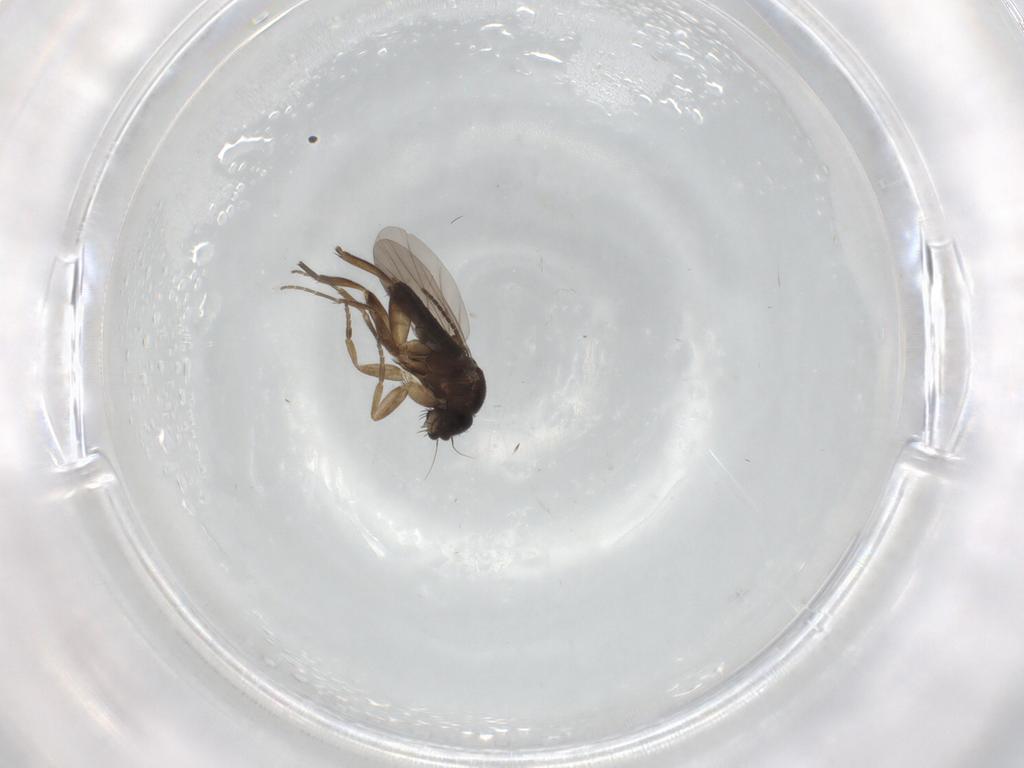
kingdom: Animalia
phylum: Arthropoda
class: Insecta
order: Diptera
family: Phoridae
